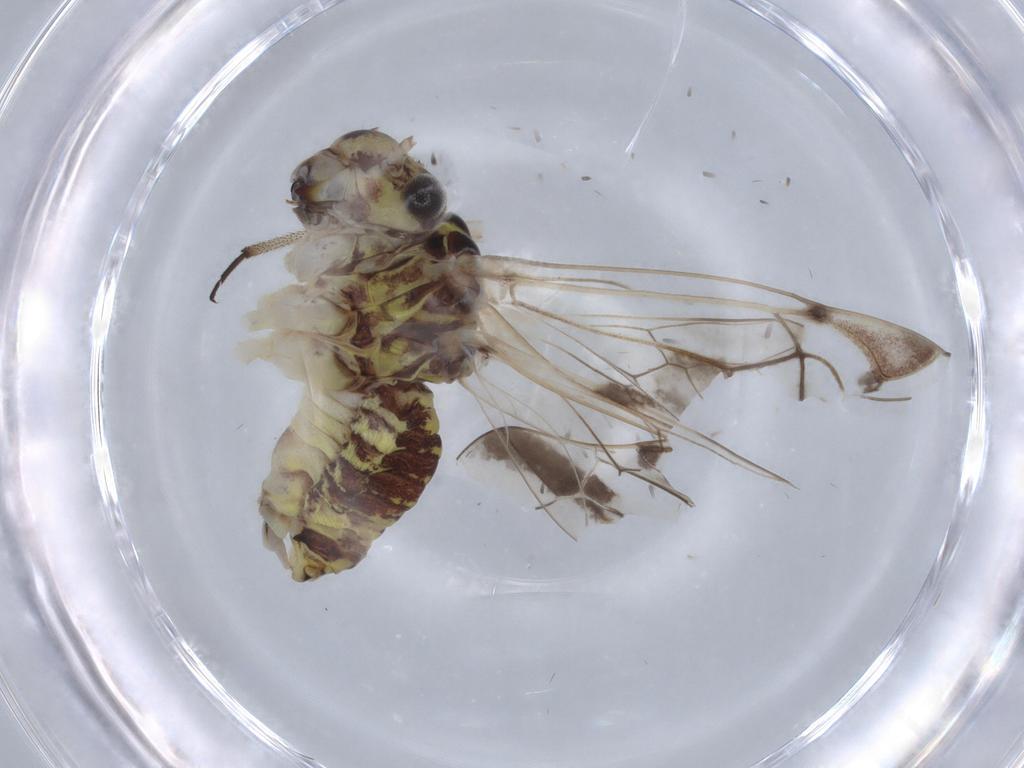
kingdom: Animalia
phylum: Arthropoda
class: Insecta
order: Psocodea
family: Psocidae
